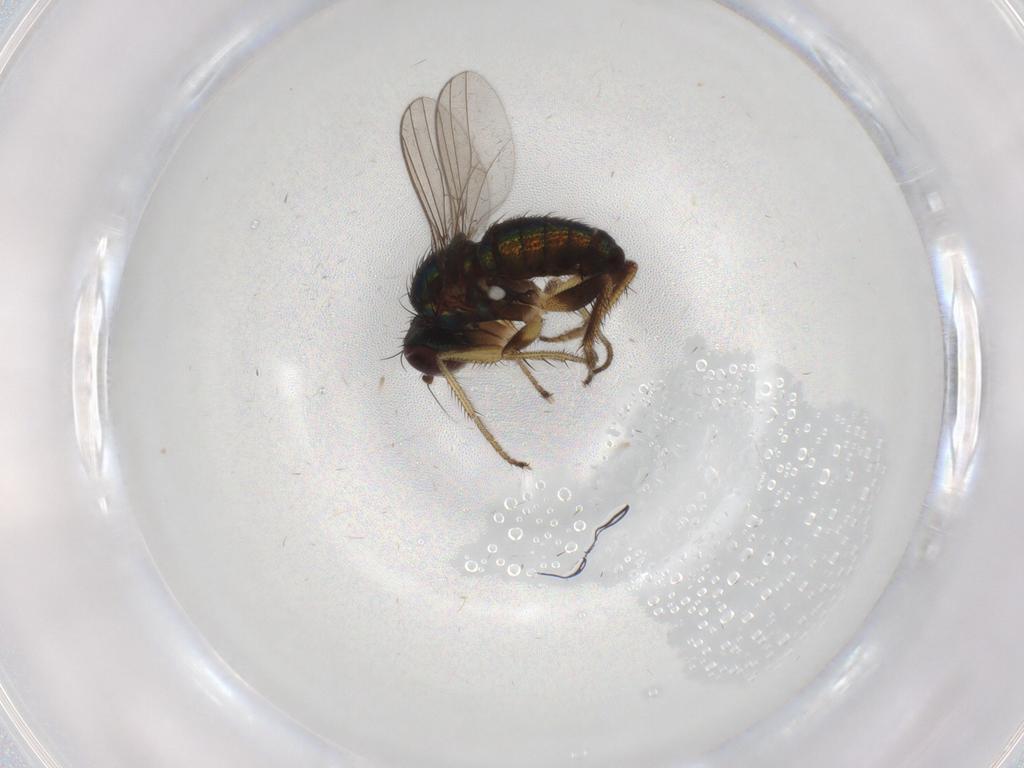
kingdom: Animalia
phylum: Arthropoda
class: Insecta
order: Diptera
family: Dolichopodidae
